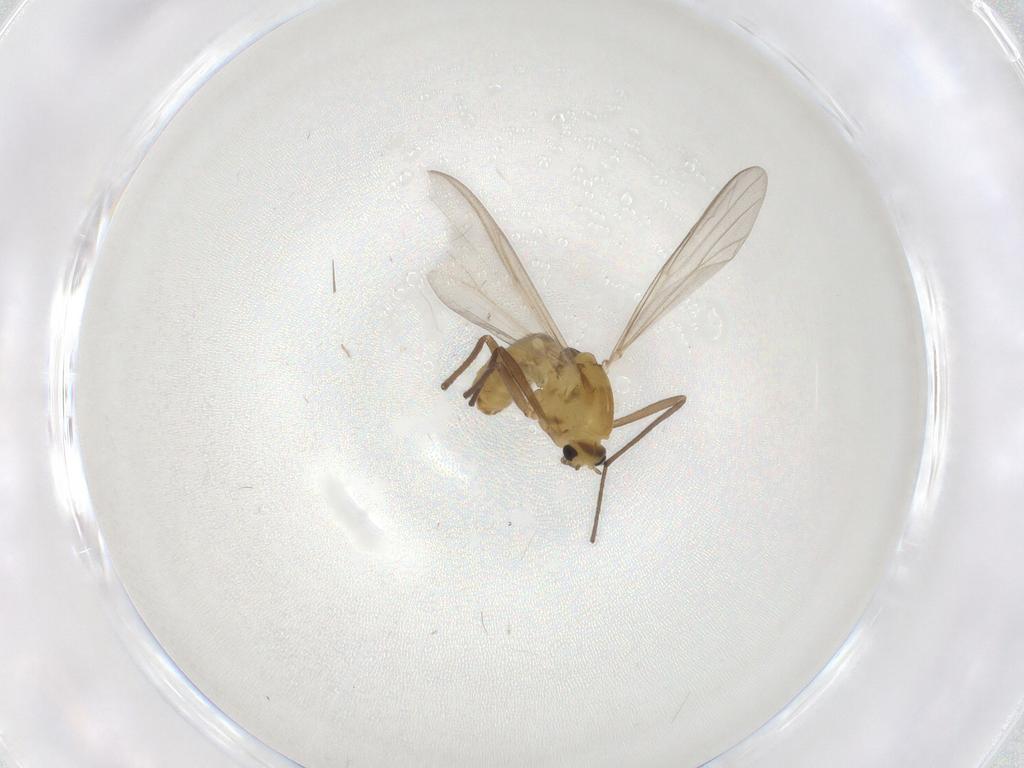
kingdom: Animalia
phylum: Arthropoda
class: Insecta
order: Diptera
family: Chironomidae
